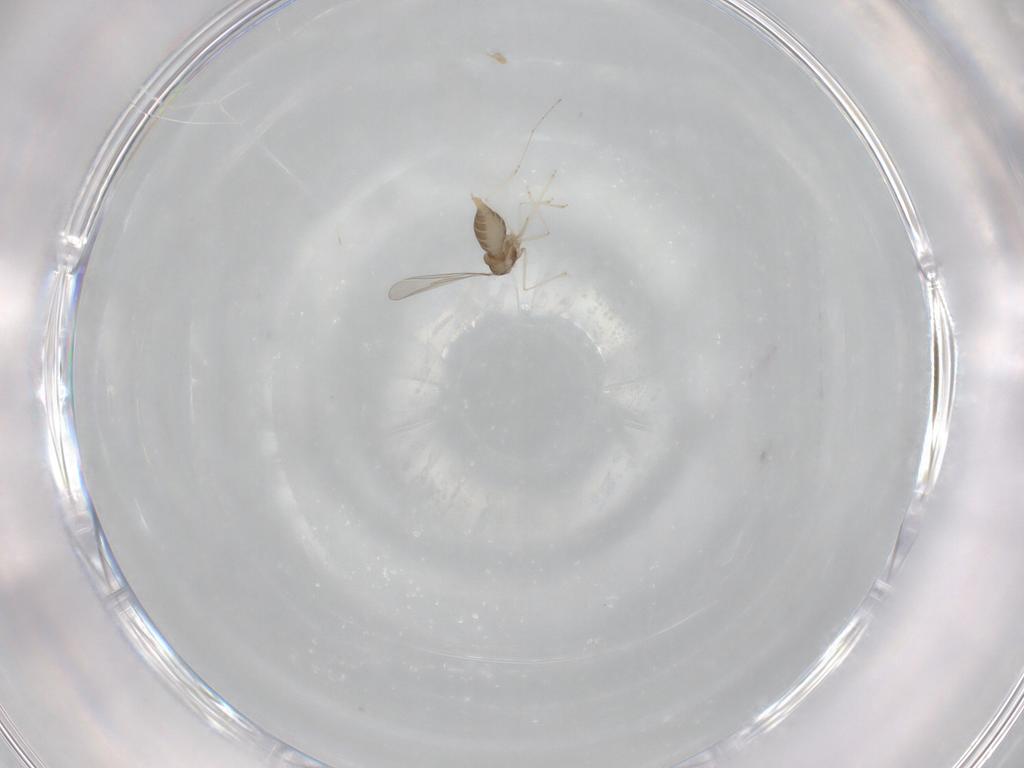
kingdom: Animalia
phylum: Arthropoda
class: Insecta
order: Diptera
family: Cecidomyiidae
